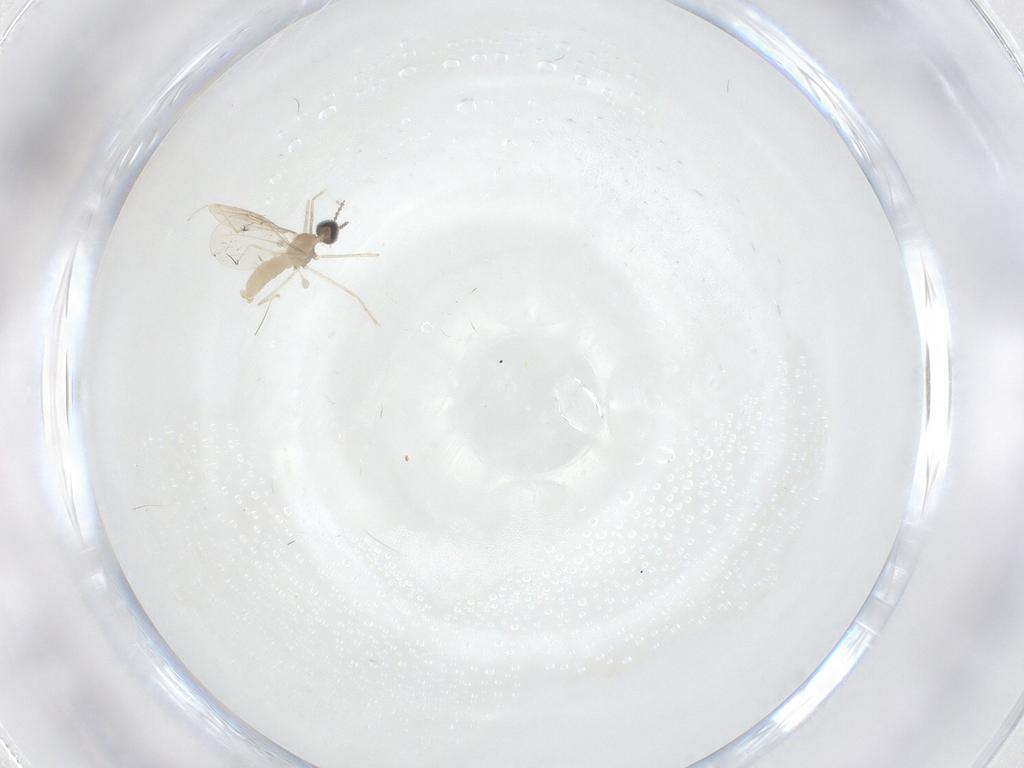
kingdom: Animalia
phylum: Arthropoda
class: Insecta
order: Diptera
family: Cecidomyiidae
